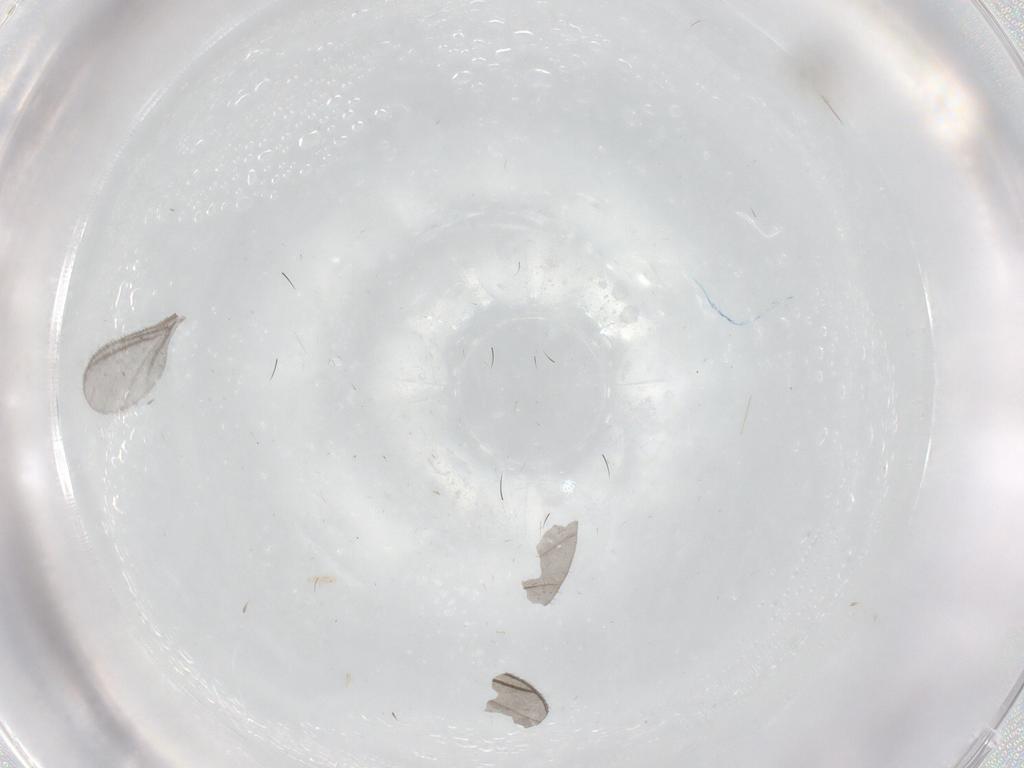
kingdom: Animalia
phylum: Arthropoda
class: Insecta
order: Diptera
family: Cecidomyiidae
